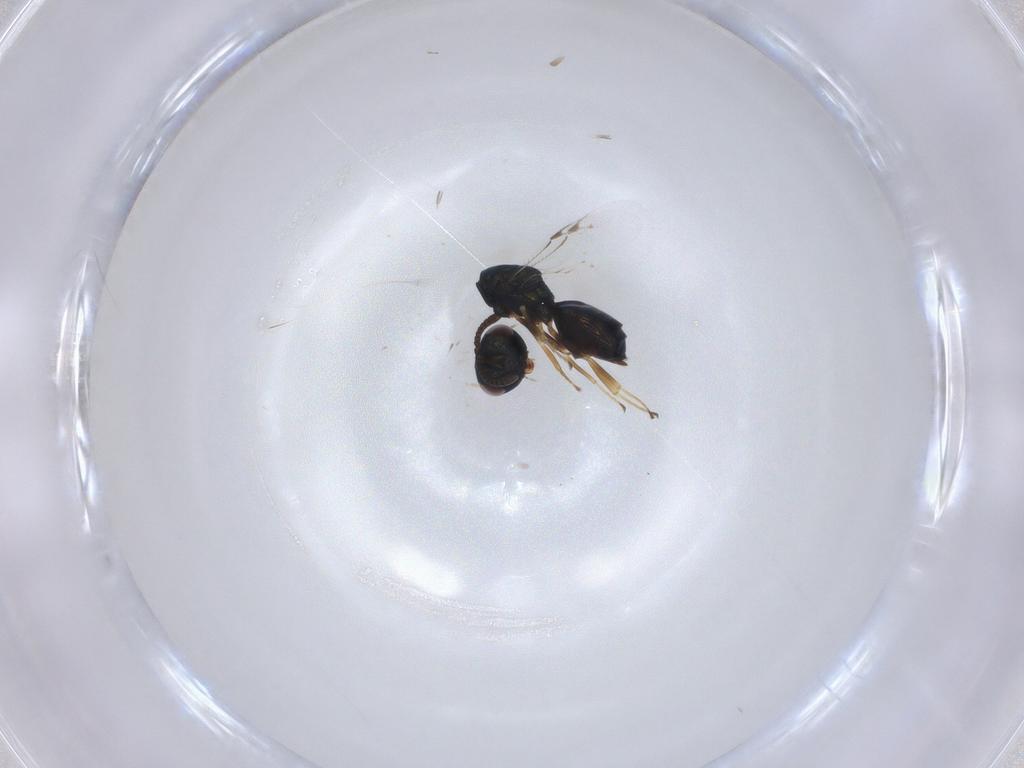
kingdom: Animalia
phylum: Arthropoda
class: Insecta
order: Hymenoptera
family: Pteromalidae
